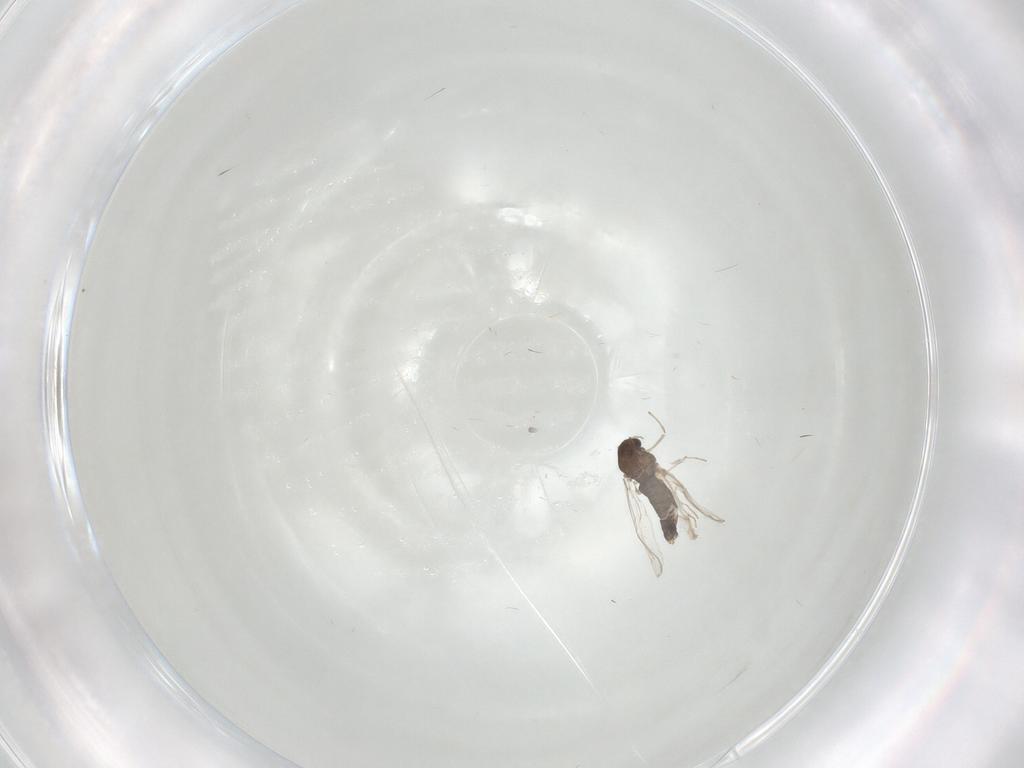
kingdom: Animalia
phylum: Arthropoda
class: Insecta
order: Diptera
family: Chironomidae
